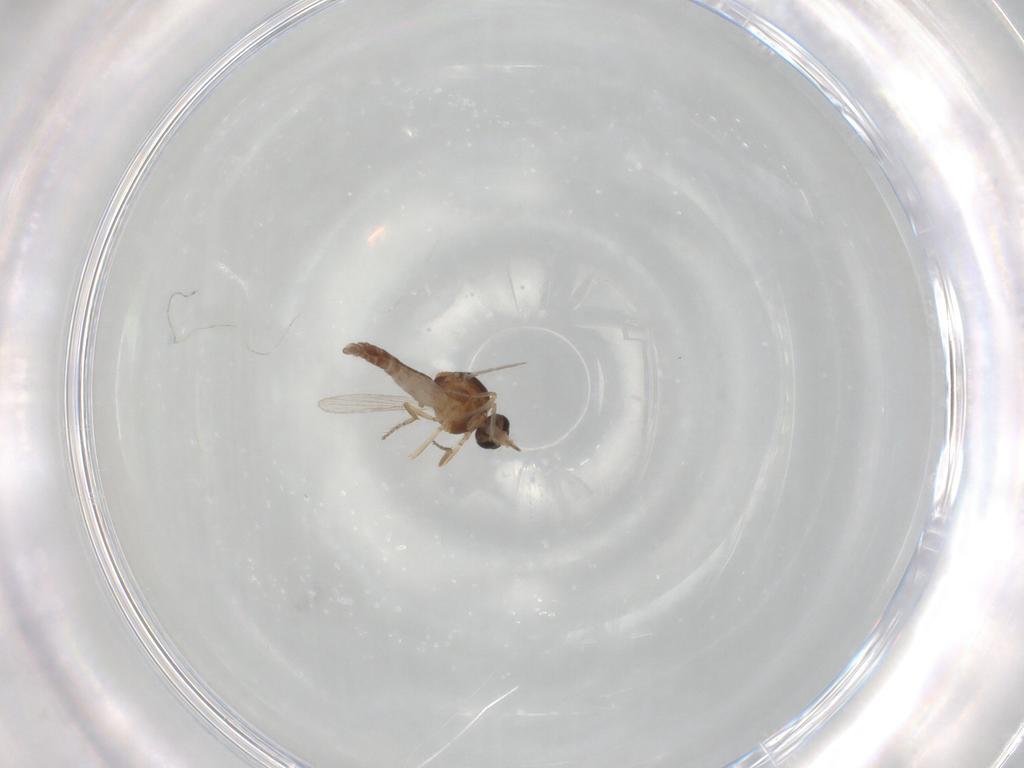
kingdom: Animalia
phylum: Arthropoda
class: Insecta
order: Diptera
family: Ceratopogonidae
